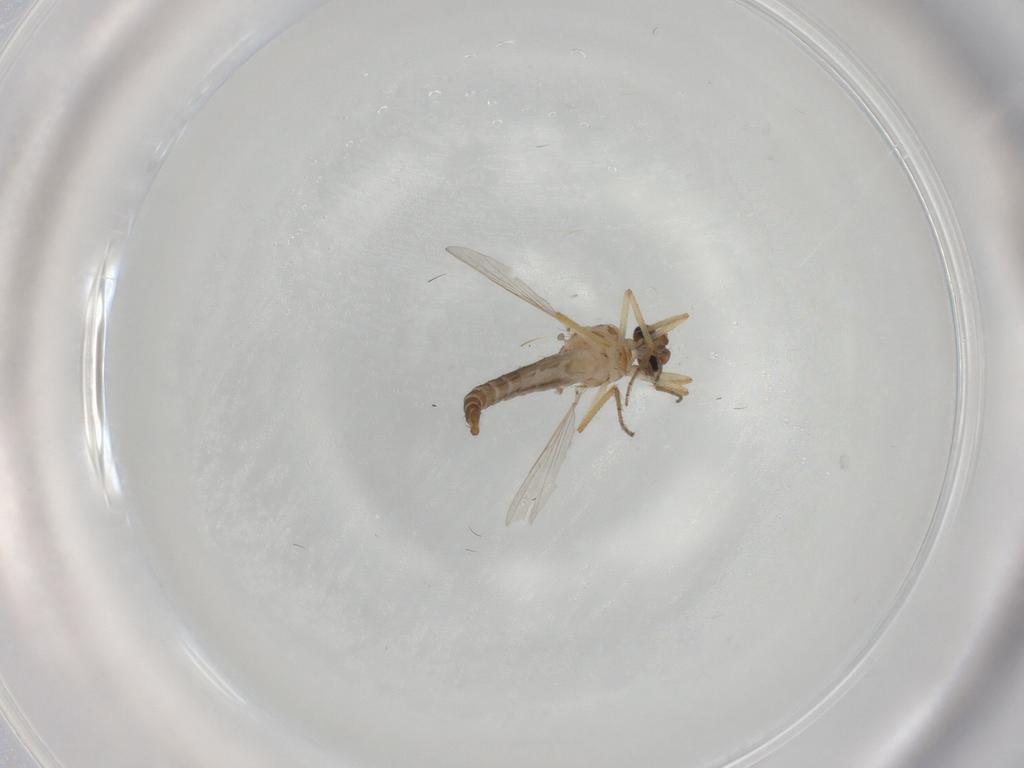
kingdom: Animalia
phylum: Arthropoda
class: Insecta
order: Diptera
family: Ceratopogonidae
